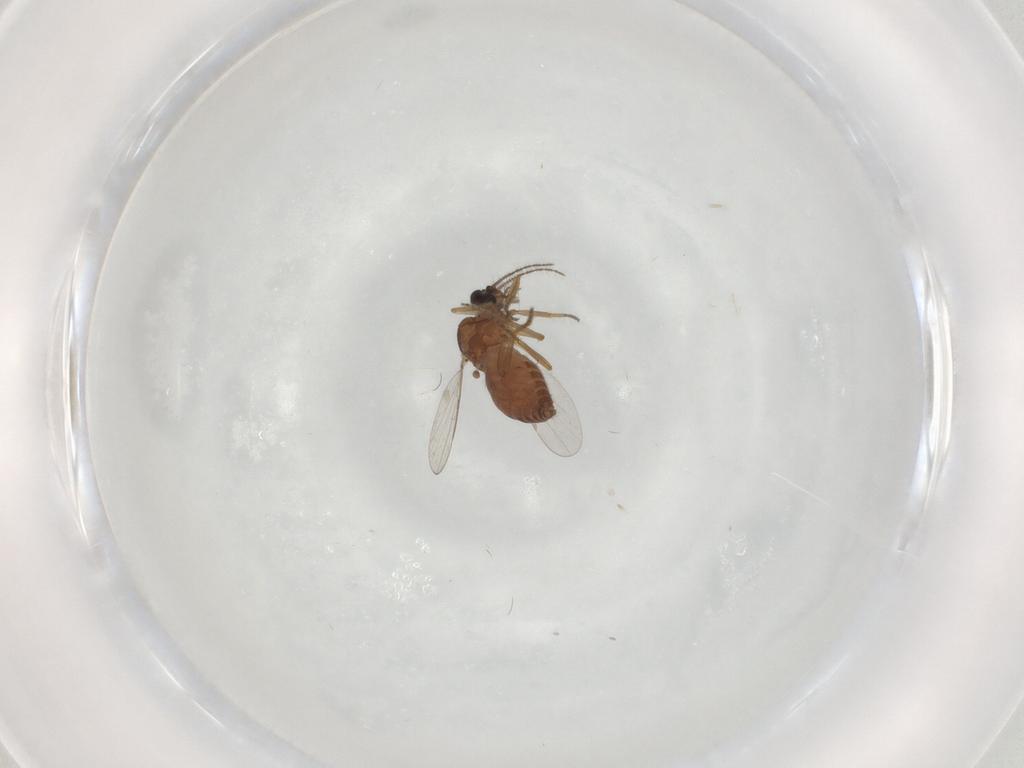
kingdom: Animalia
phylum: Arthropoda
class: Insecta
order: Diptera
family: Ceratopogonidae
